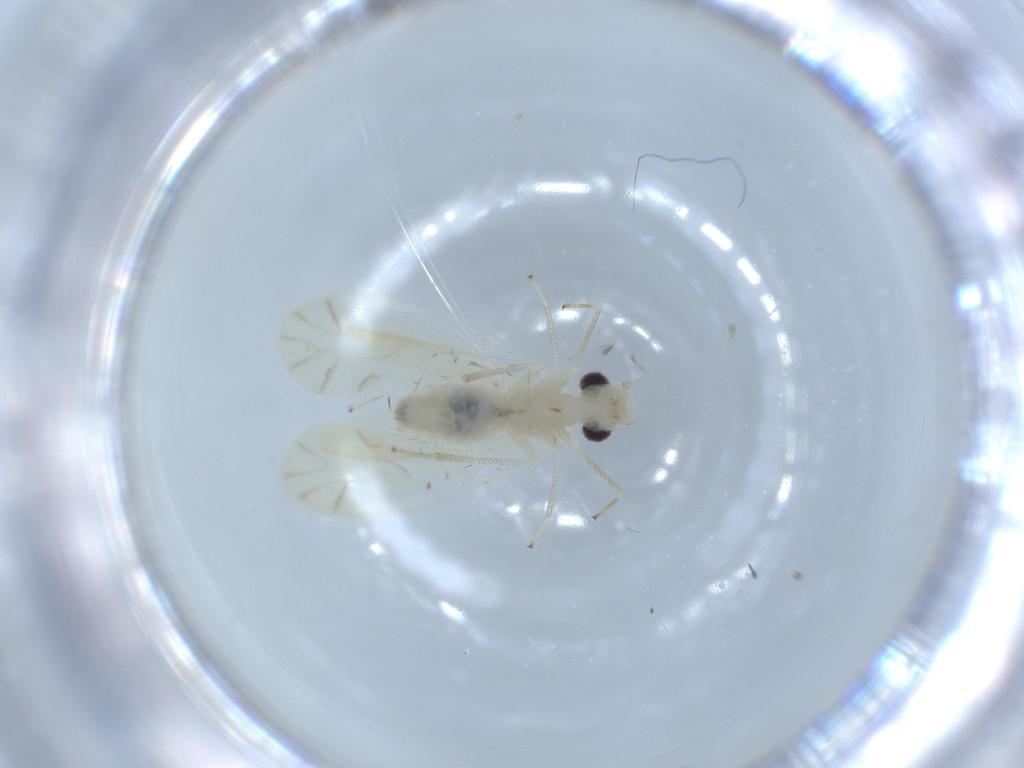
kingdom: Animalia
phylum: Arthropoda
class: Insecta
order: Psocodea
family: Caeciliusidae
